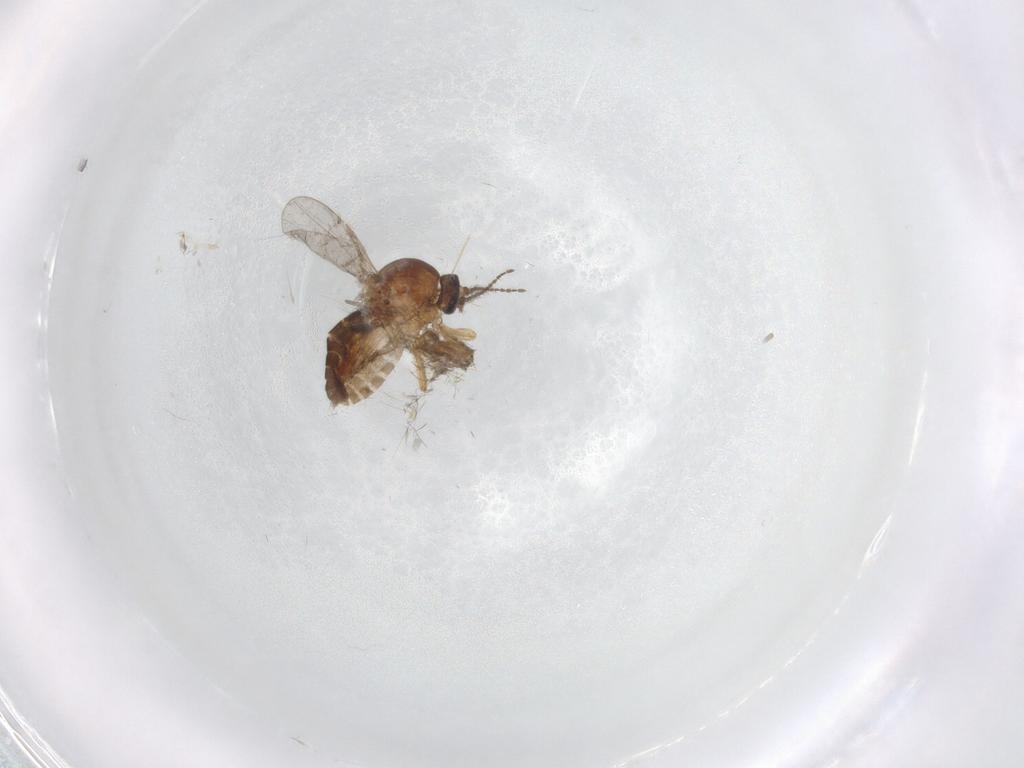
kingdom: Animalia
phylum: Arthropoda
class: Insecta
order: Diptera
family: Ceratopogonidae
